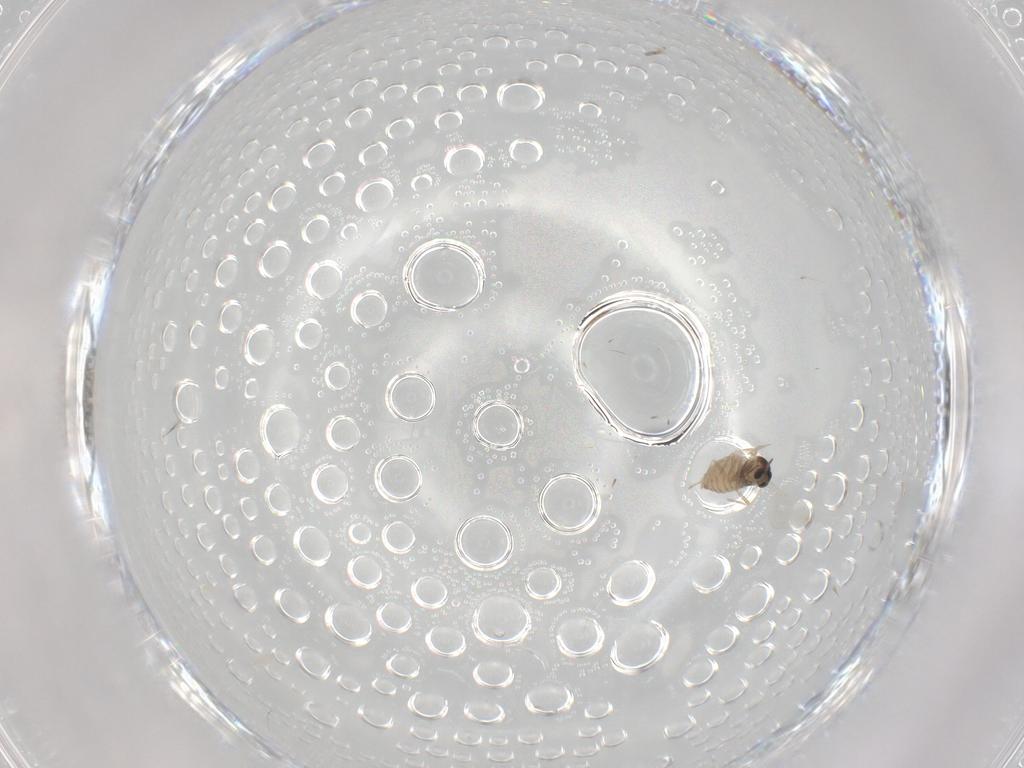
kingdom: Animalia
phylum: Arthropoda
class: Insecta
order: Diptera
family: Cecidomyiidae
